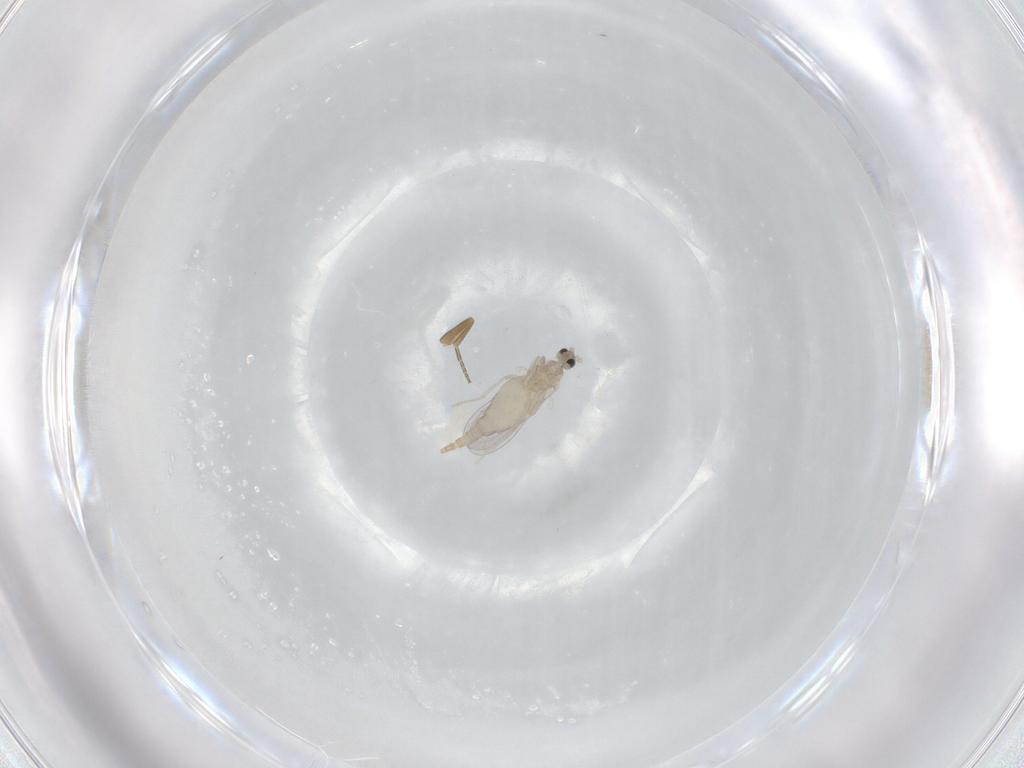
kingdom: Animalia
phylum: Arthropoda
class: Insecta
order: Diptera
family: Cecidomyiidae
